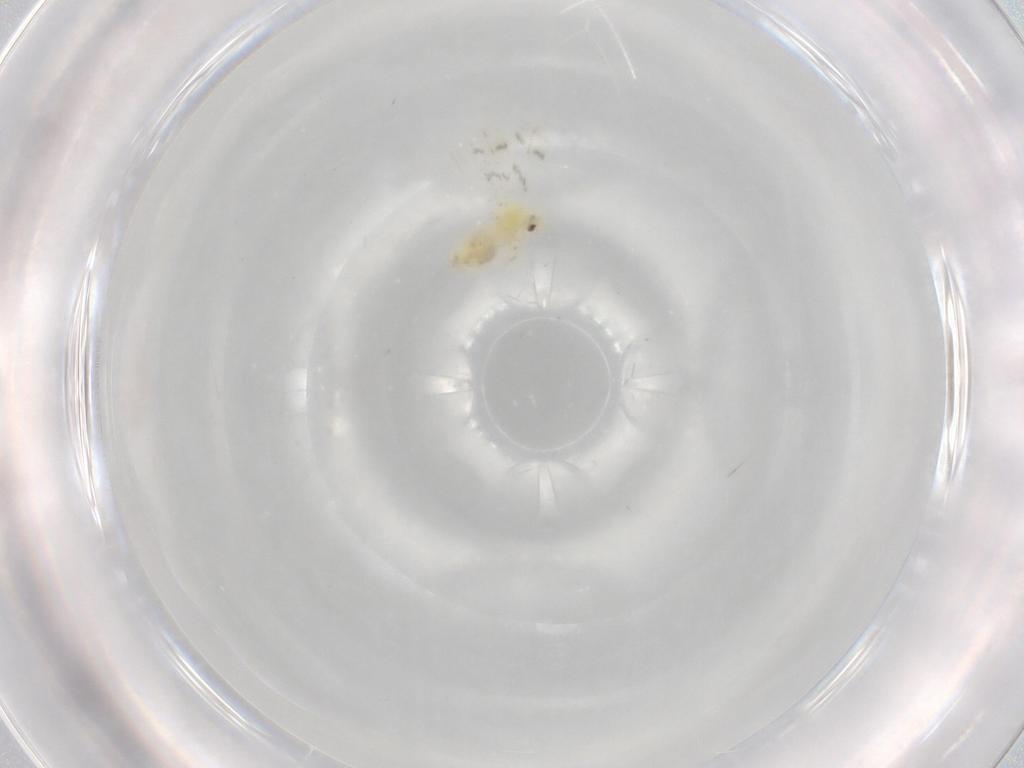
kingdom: Animalia
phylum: Arthropoda
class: Insecta
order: Hemiptera
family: Aleyrodidae
